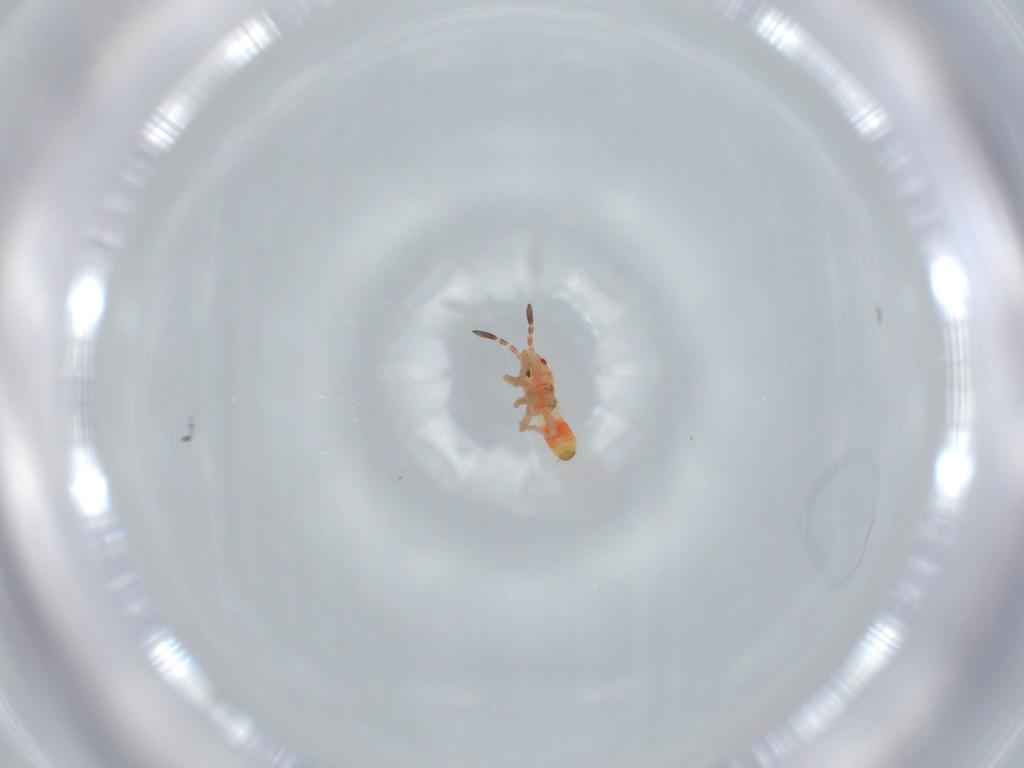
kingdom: Animalia
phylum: Arthropoda
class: Insecta
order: Hemiptera
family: Blissidae
